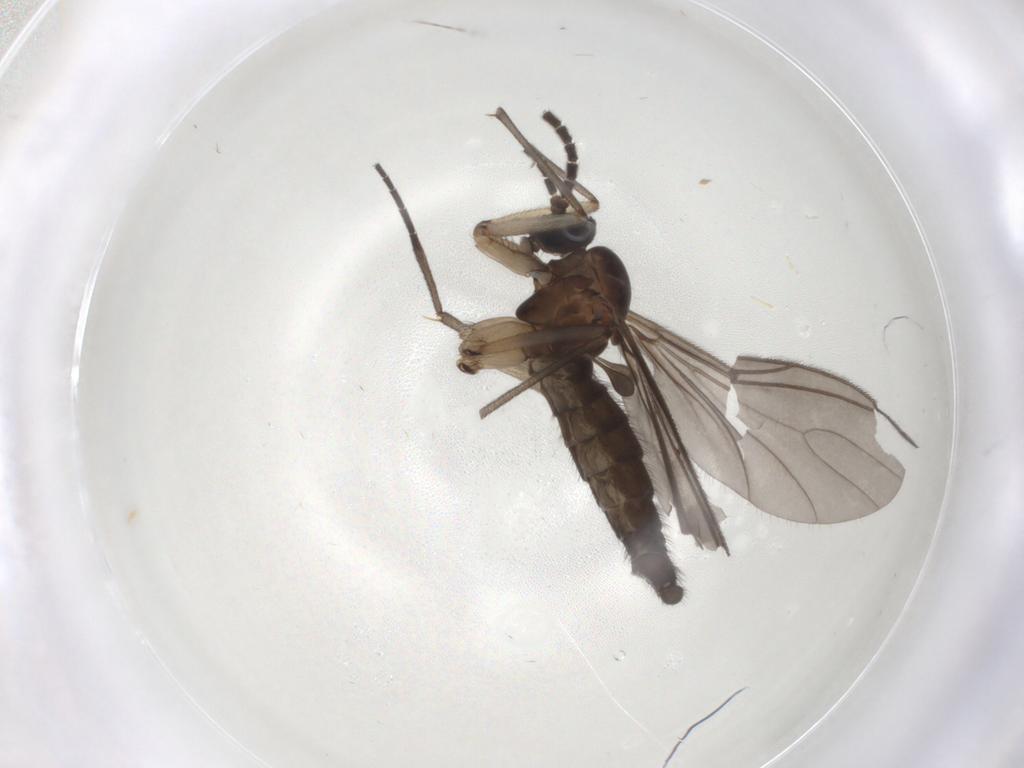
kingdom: Animalia
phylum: Arthropoda
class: Insecta
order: Diptera
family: Sciaridae
